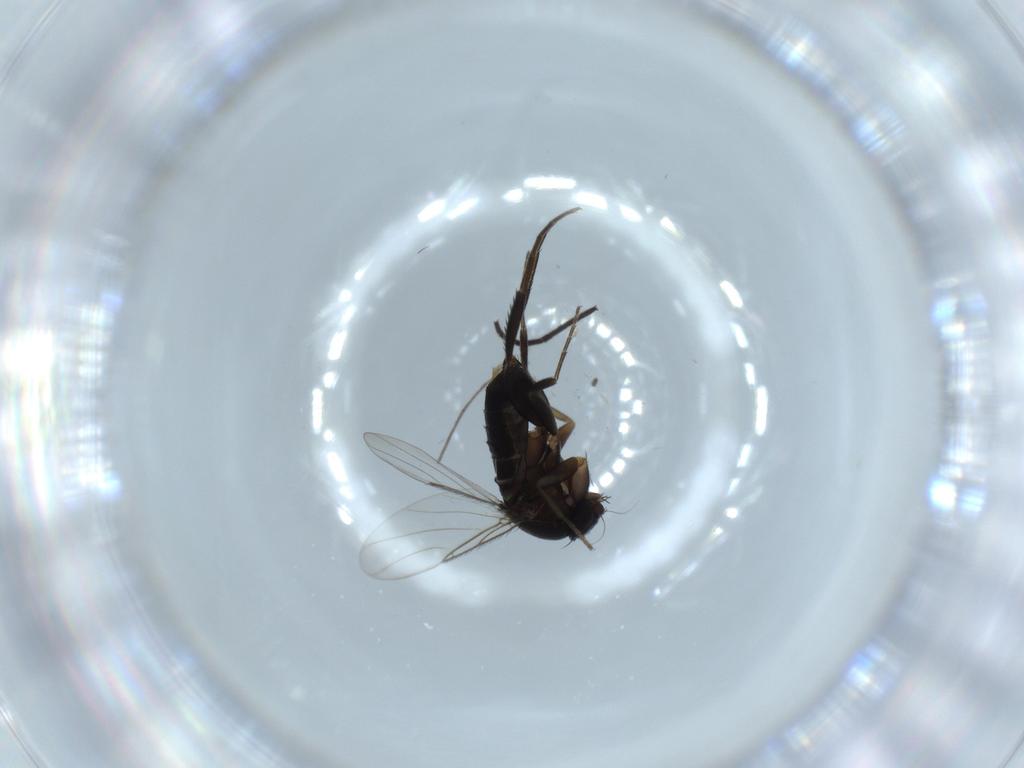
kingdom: Animalia
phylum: Arthropoda
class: Insecta
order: Diptera
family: Phoridae
